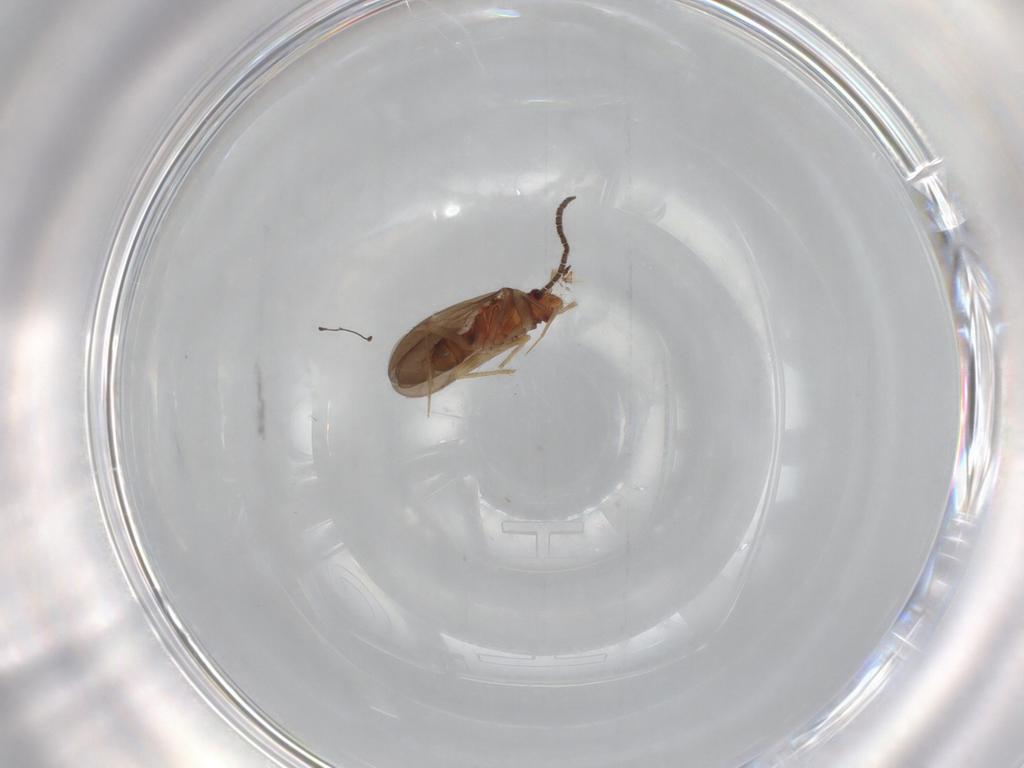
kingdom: Animalia
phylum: Arthropoda
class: Insecta
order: Hemiptera
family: Ceratocombidae
